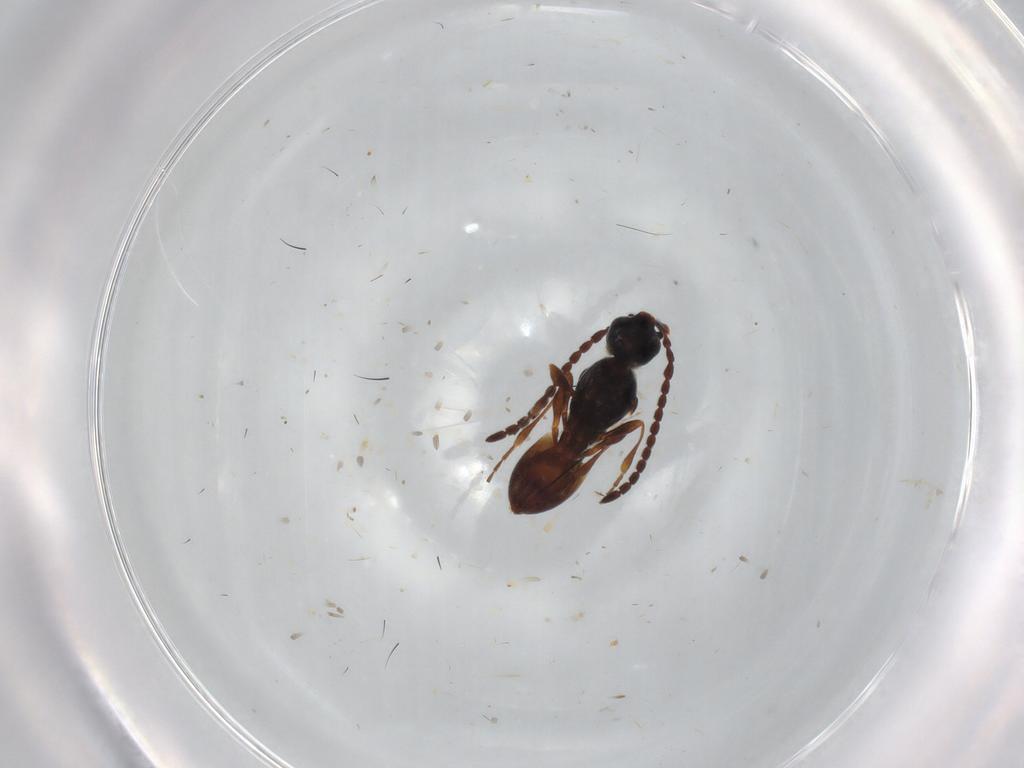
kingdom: Animalia
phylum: Arthropoda
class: Insecta
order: Hymenoptera
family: Diapriidae
